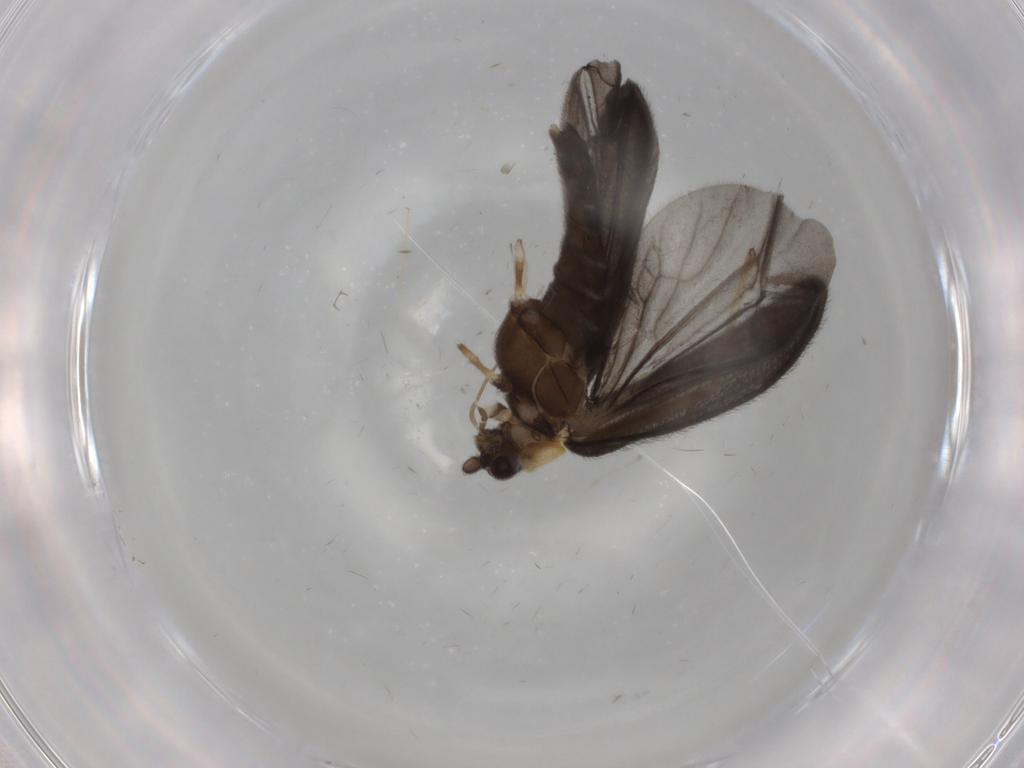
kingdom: Animalia
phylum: Arthropoda
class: Insecta
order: Coleoptera
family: Lycidae
